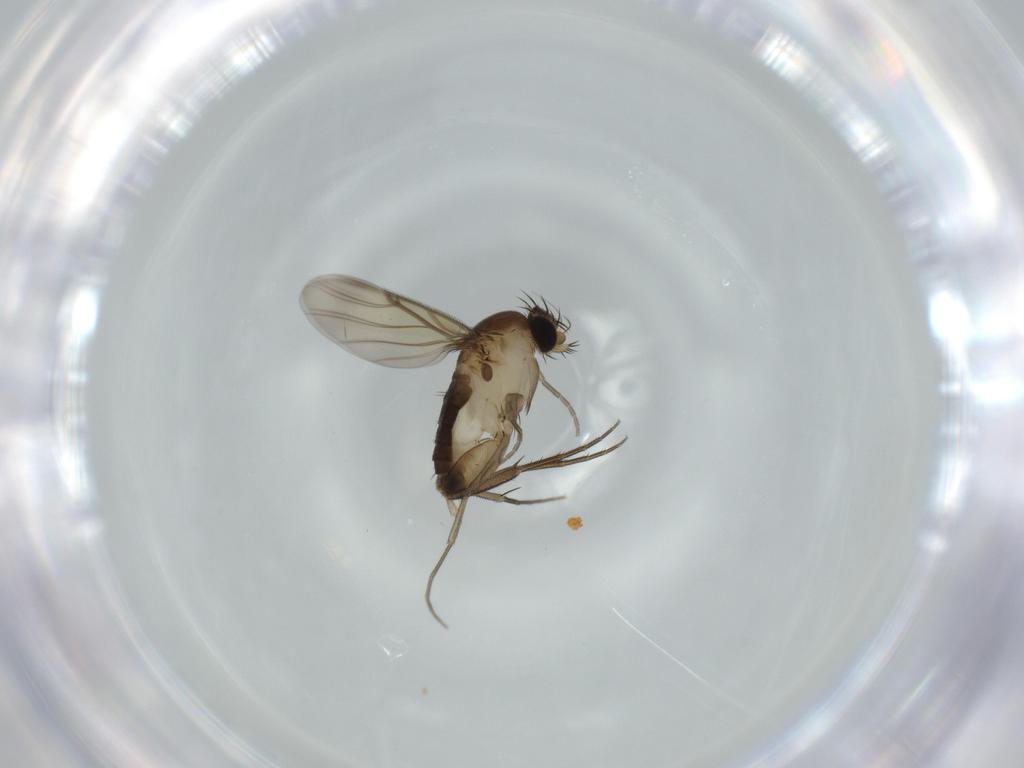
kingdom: Animalia
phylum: Arthropoda
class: Insecta
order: Diptera
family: Phoridae
